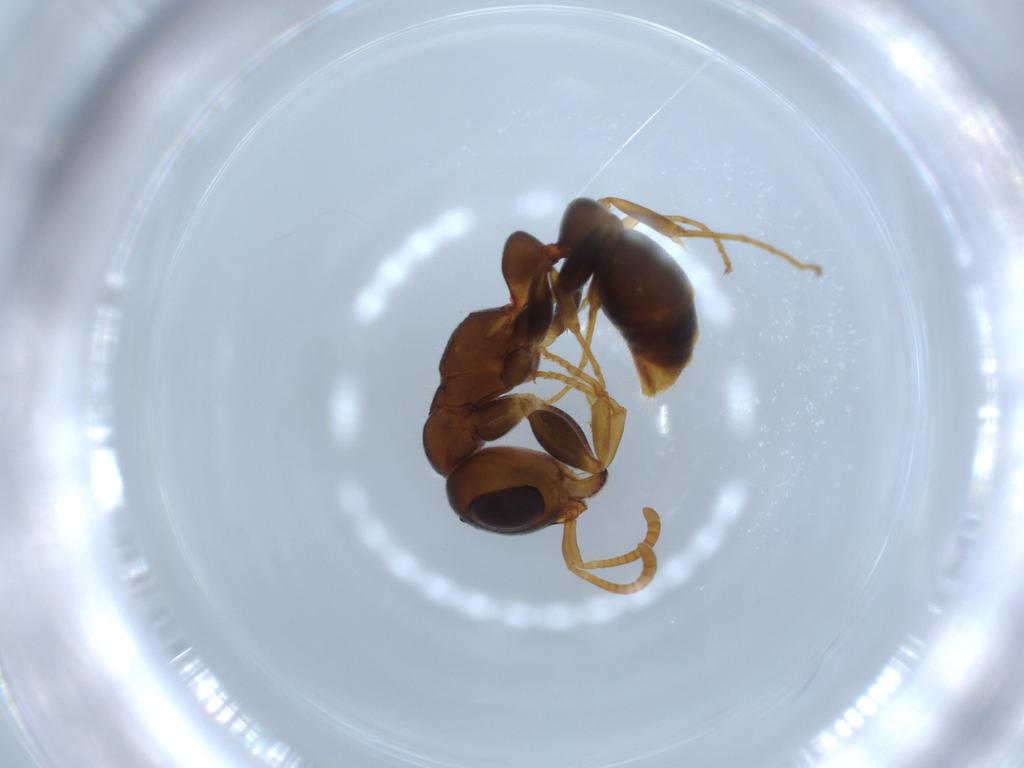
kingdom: Animalia
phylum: Arthropoda
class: Insecta
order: Hymenoptera
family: Formicidae
